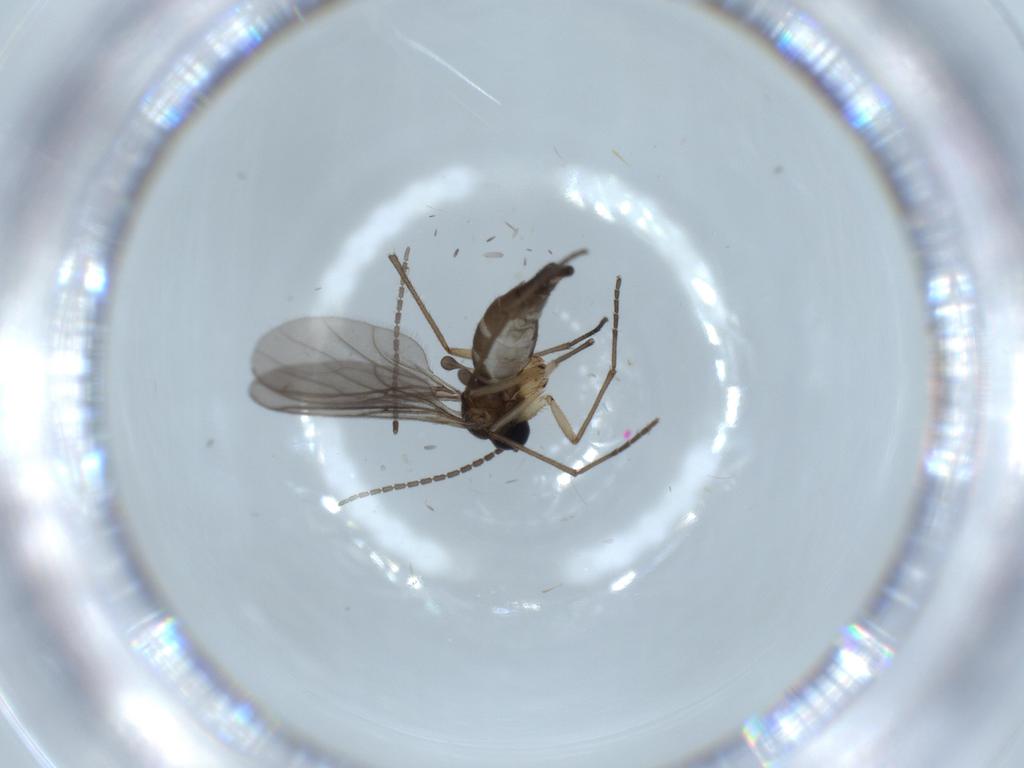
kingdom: Animalia
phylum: Arthropoda
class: Insecta
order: Diptera
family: Sciaridae
